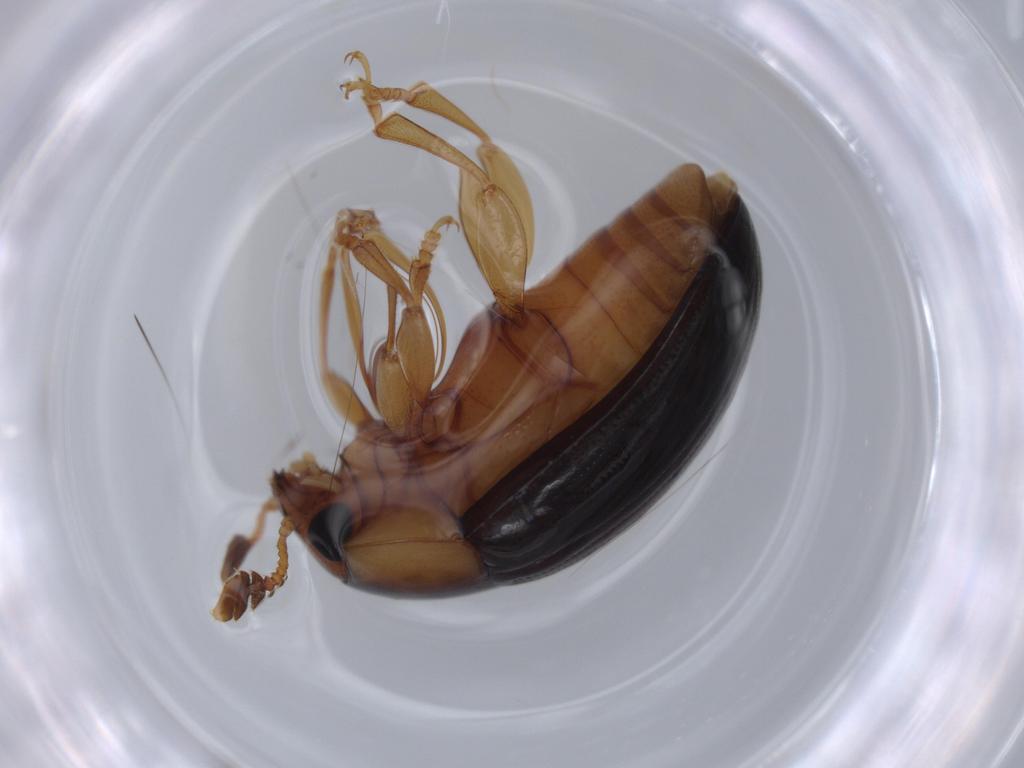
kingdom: Animalia
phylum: Arthropoda
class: Insecta
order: Coleoptera
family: Erotylidae
